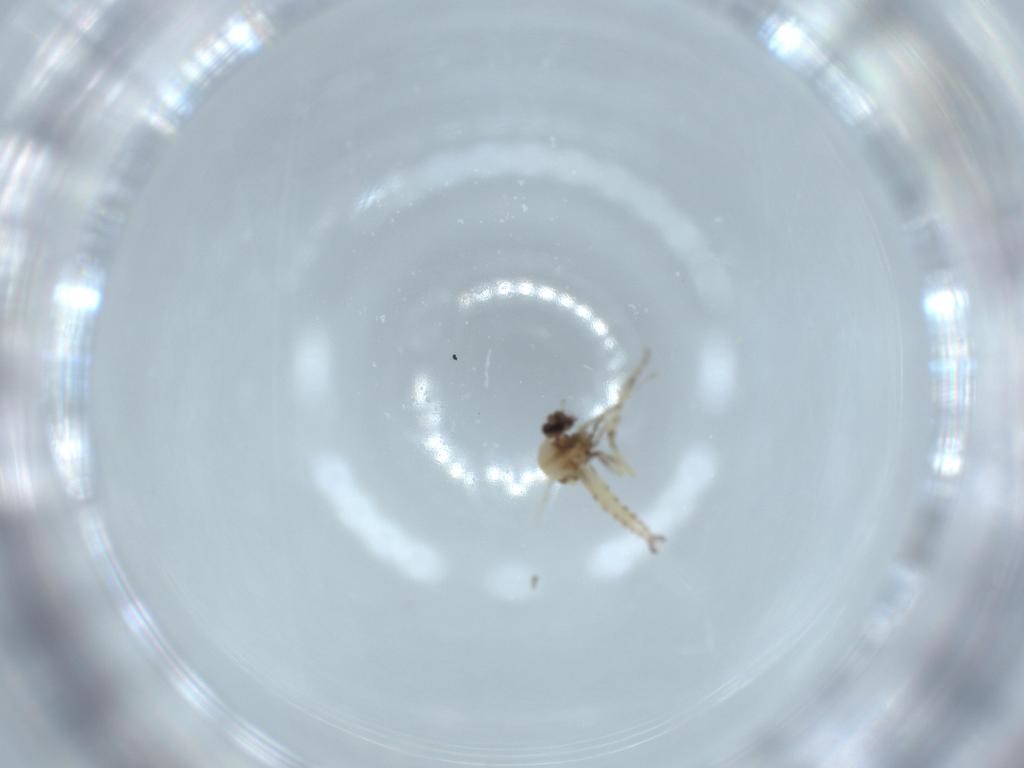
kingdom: Animalia
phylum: Arthropoda
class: Insecta
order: Diptera
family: Ceratopogonidae
